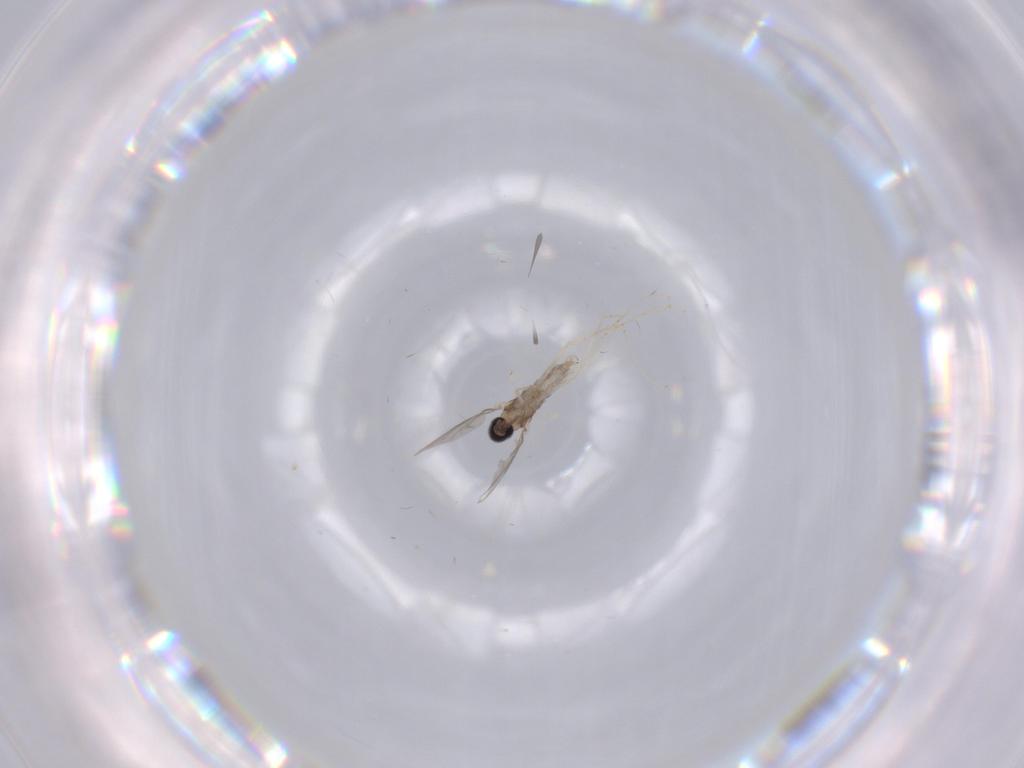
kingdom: Animalia
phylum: Arthropoda
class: Insecta
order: Diptera
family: Cecidomyiidae
